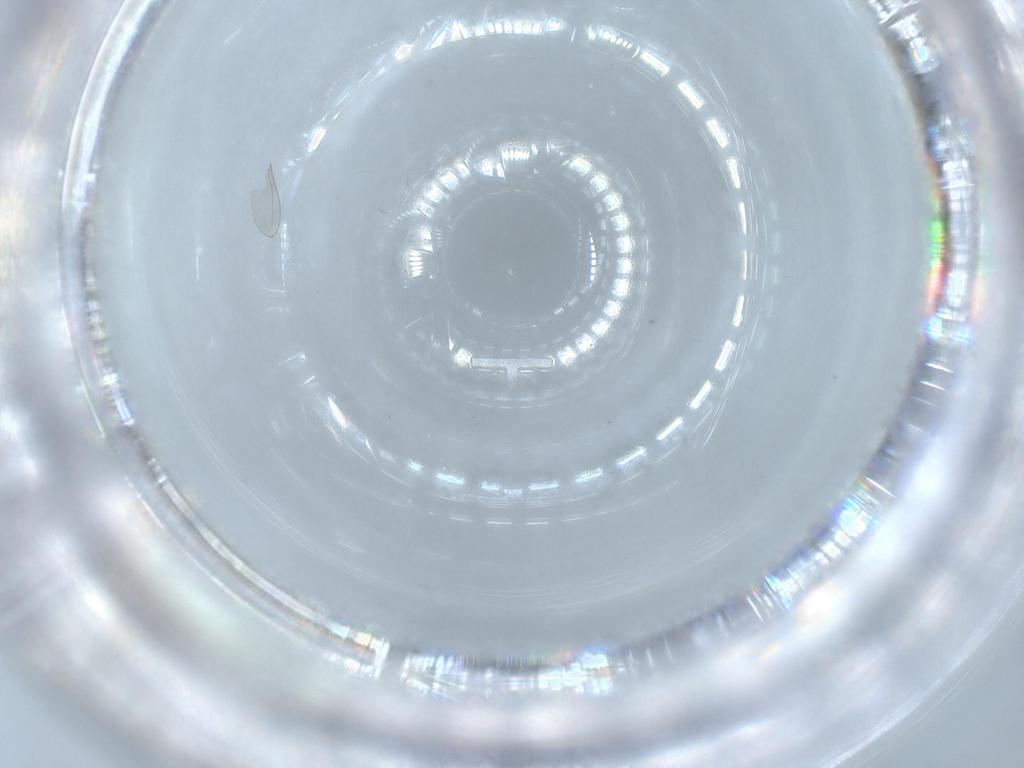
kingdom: Animalia
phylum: Arthropoda
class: Insecta
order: Diptera
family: Cecidomyiidae
